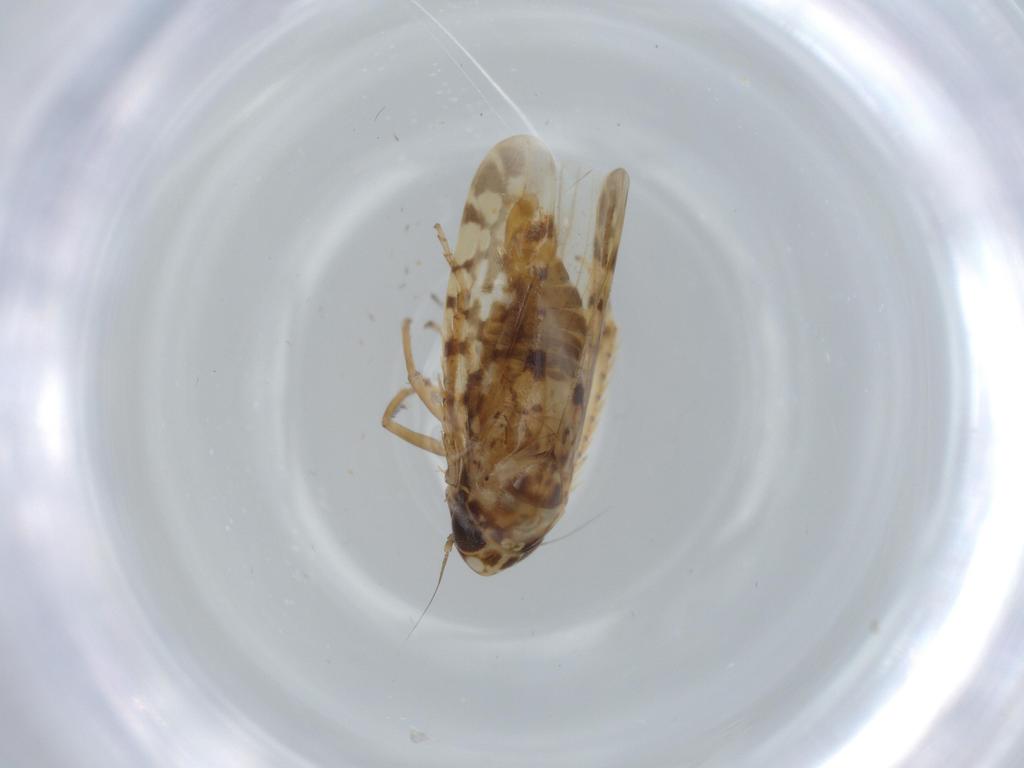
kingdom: Animalia
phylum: Arthropoda
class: Insecta
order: Hemiptera
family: Cicadellidae
